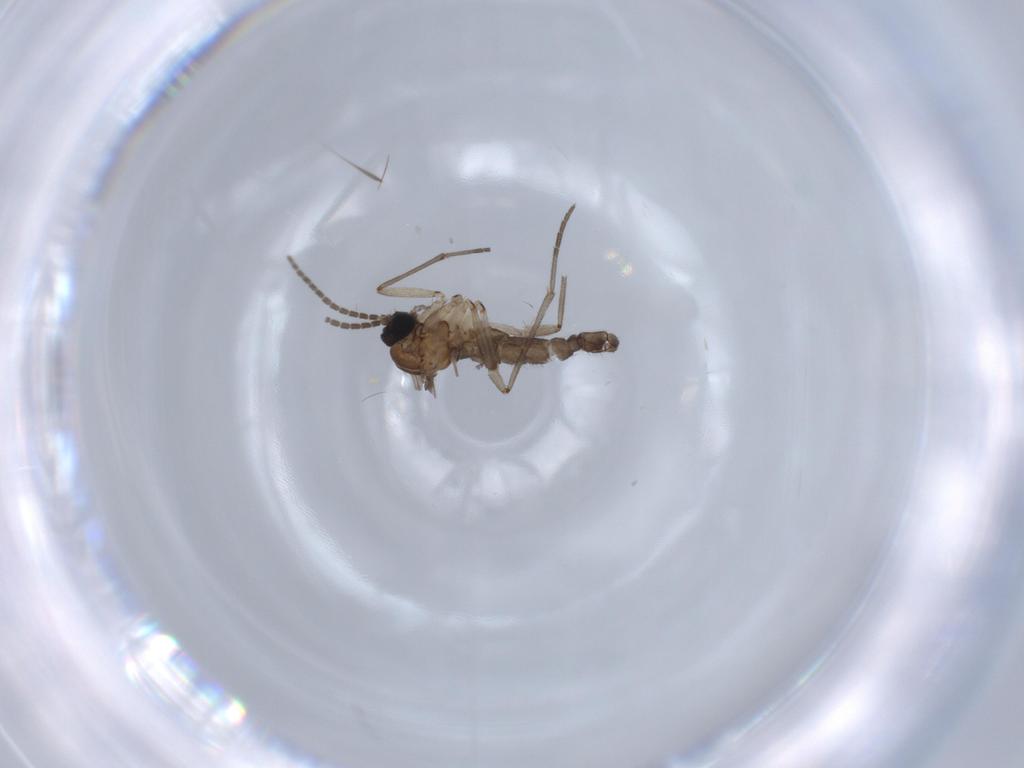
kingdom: Animalia
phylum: Arthropoda
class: Insecta
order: Diptera
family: Sciaridae
